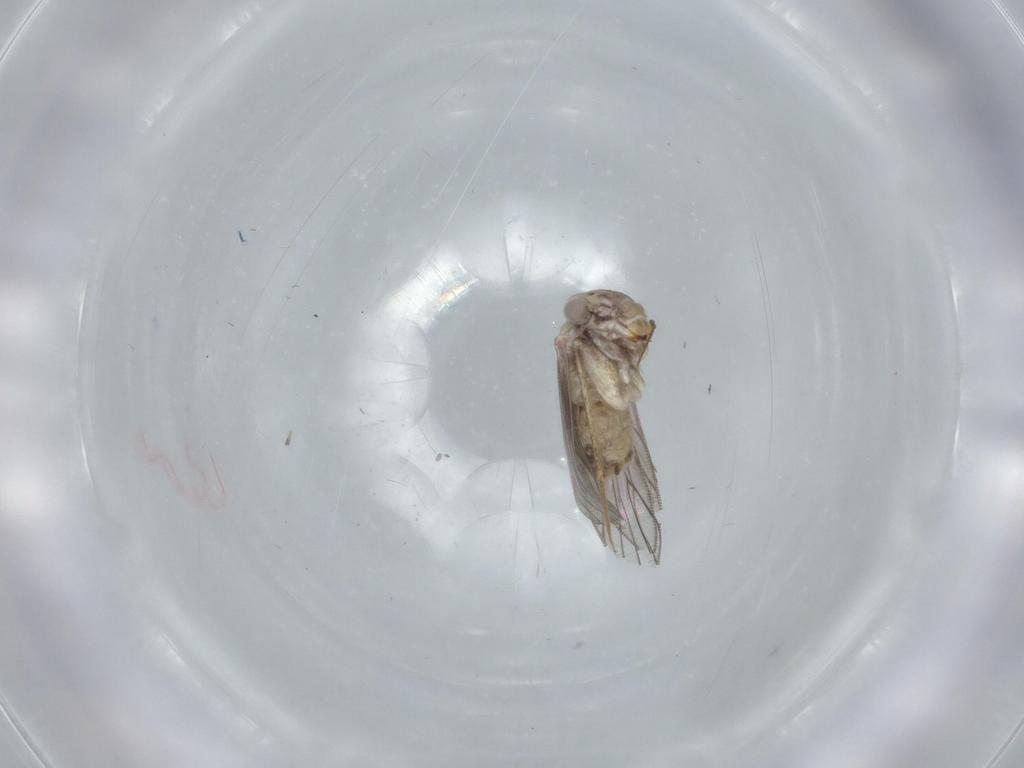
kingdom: Animalia
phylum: Arthropoda
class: Insecta
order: Psocodea
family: Lepidopsocidae
